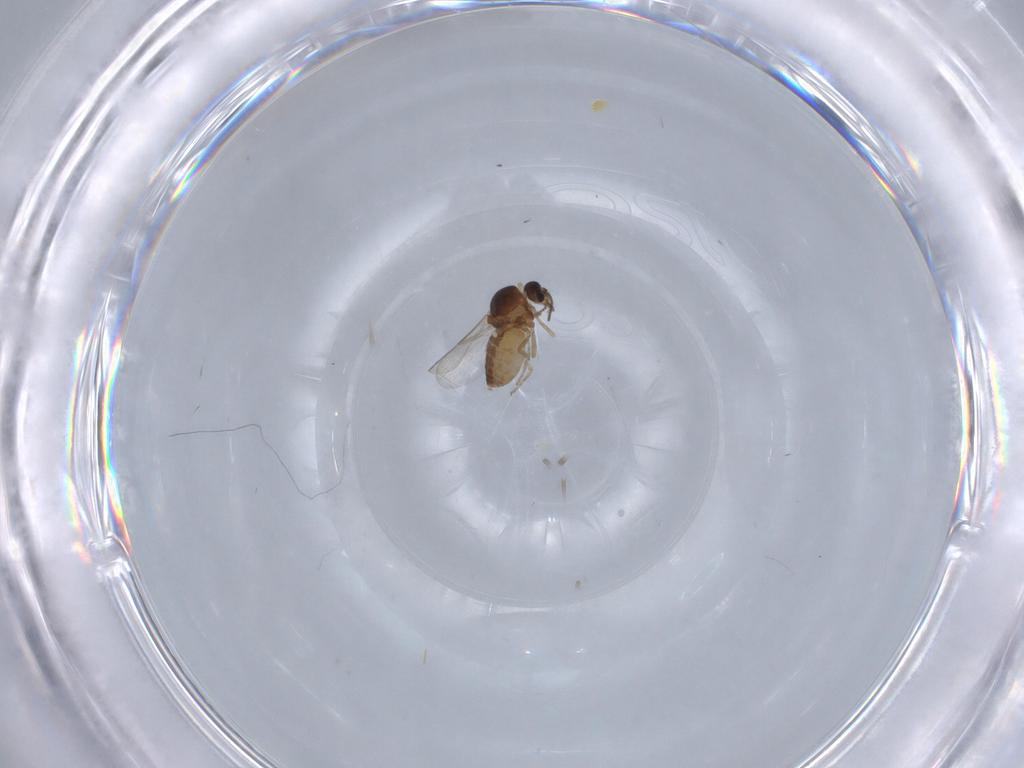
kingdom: Animalia
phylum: Arthropoda
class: Insecta
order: Diptera
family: Ceratopogonidae
